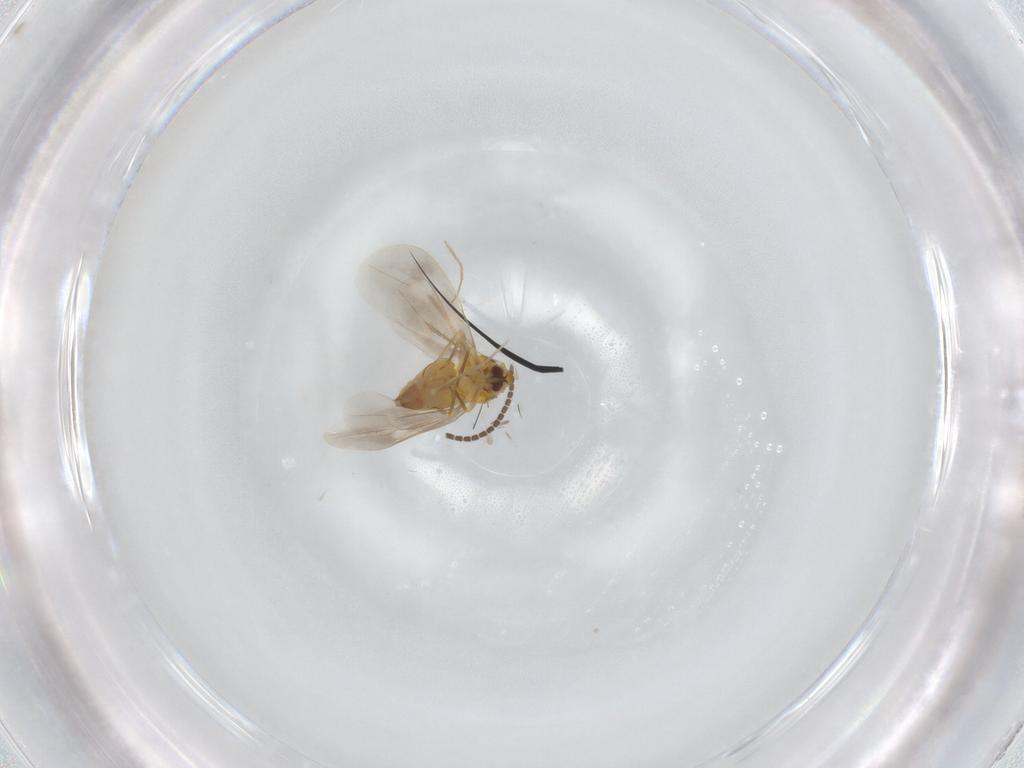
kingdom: Animalia
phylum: Arthropoda
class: Insecta
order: Hemiptera
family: Aleyrodidae
